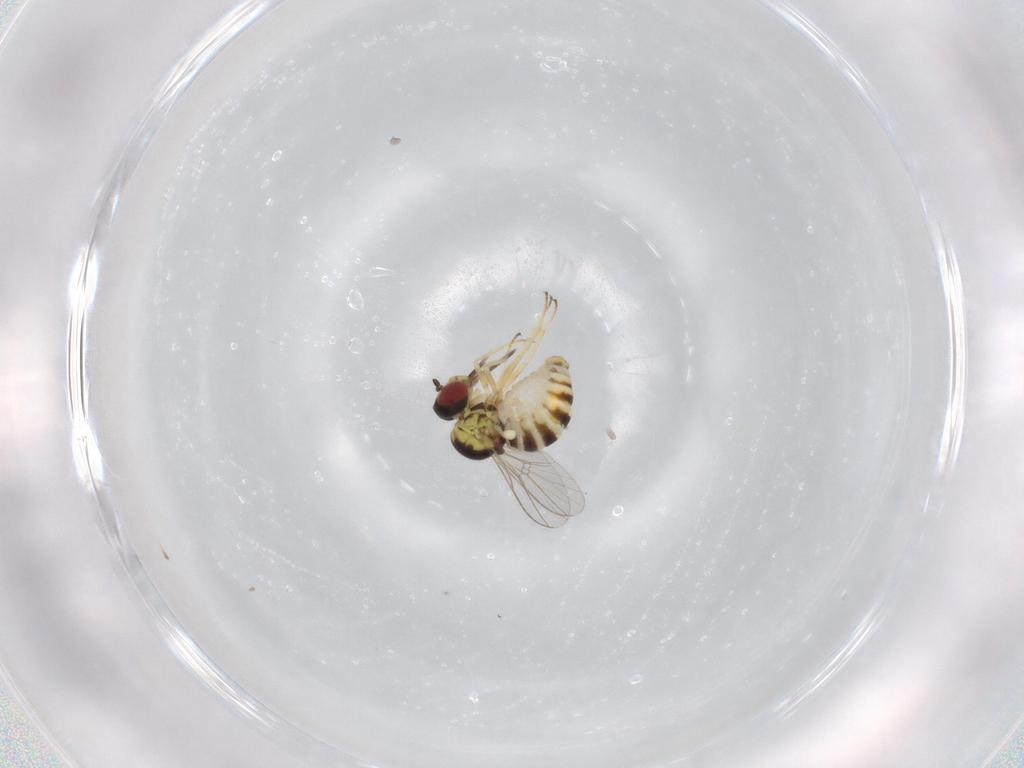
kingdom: Animalia
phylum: Arthropoda
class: Insecta
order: Diptera
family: Bombyliidae
